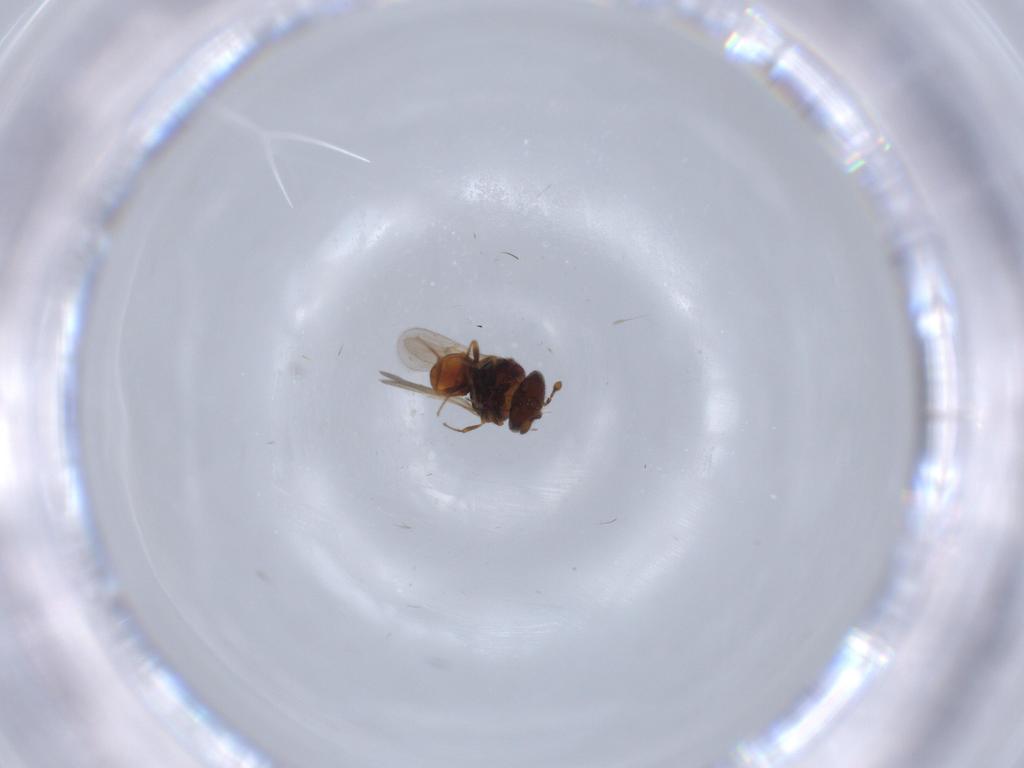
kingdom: Animalia
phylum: Arthropoda
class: Insecta
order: Hymenoptera
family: Scelionidae
